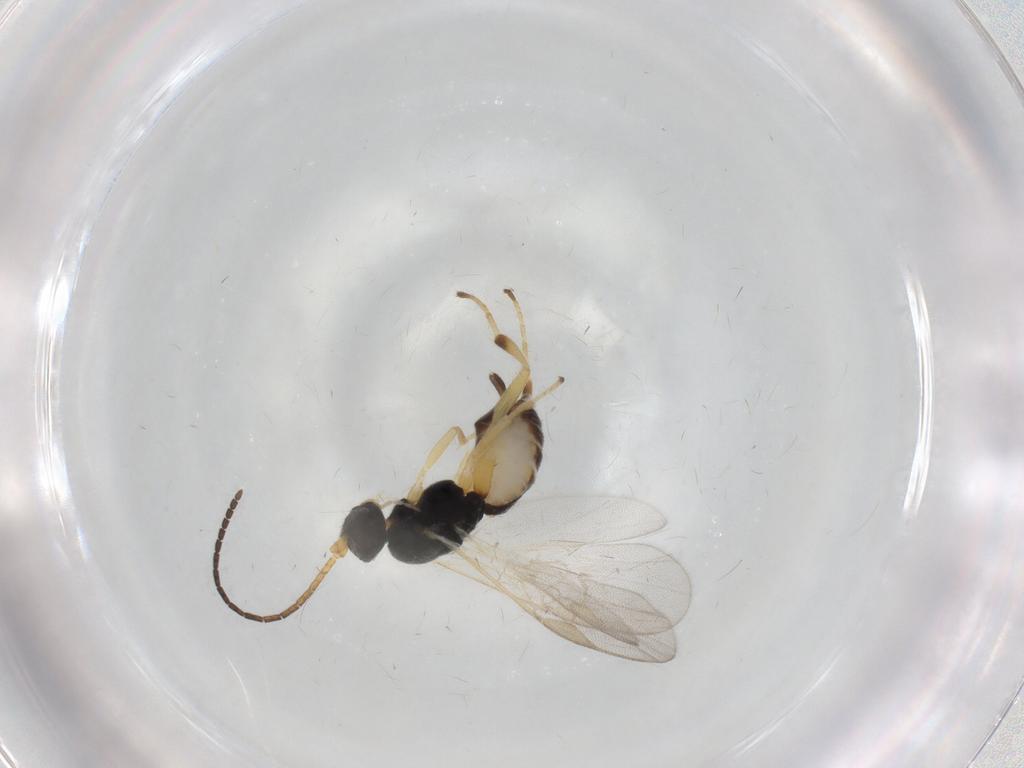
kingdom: Animalia
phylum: Arthropoda
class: Insecta
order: Hymenoptera
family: Braconidae
